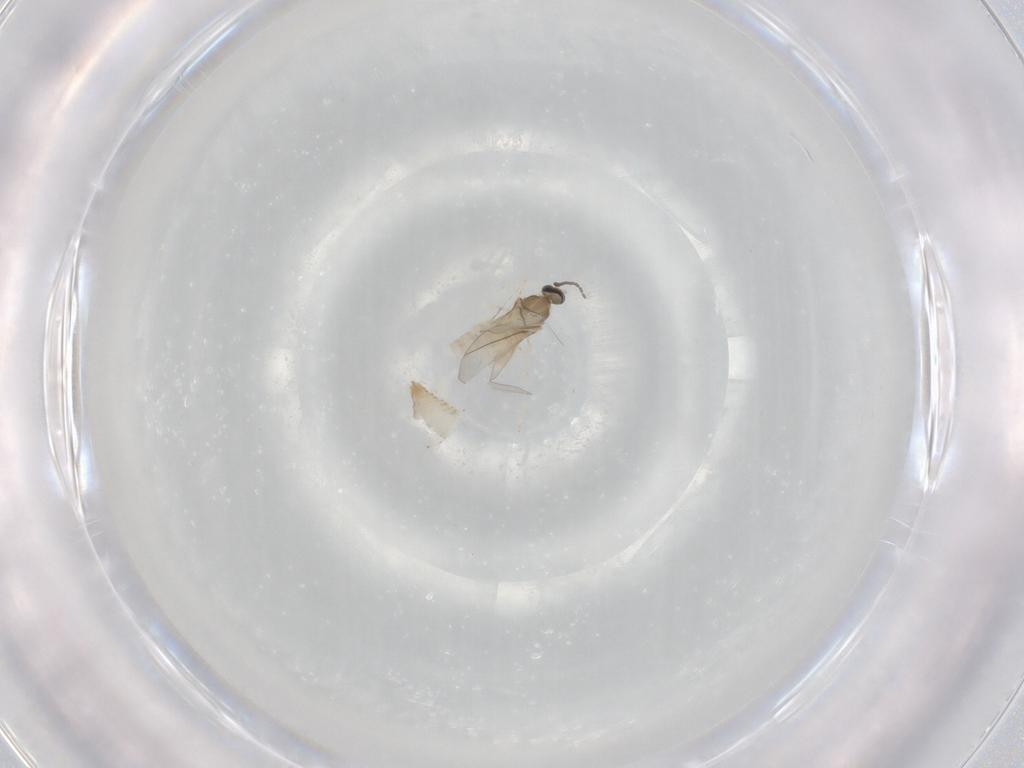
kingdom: Animalia
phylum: Arthropoda
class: Insecta
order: Diptera
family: Cecidomyiidae
